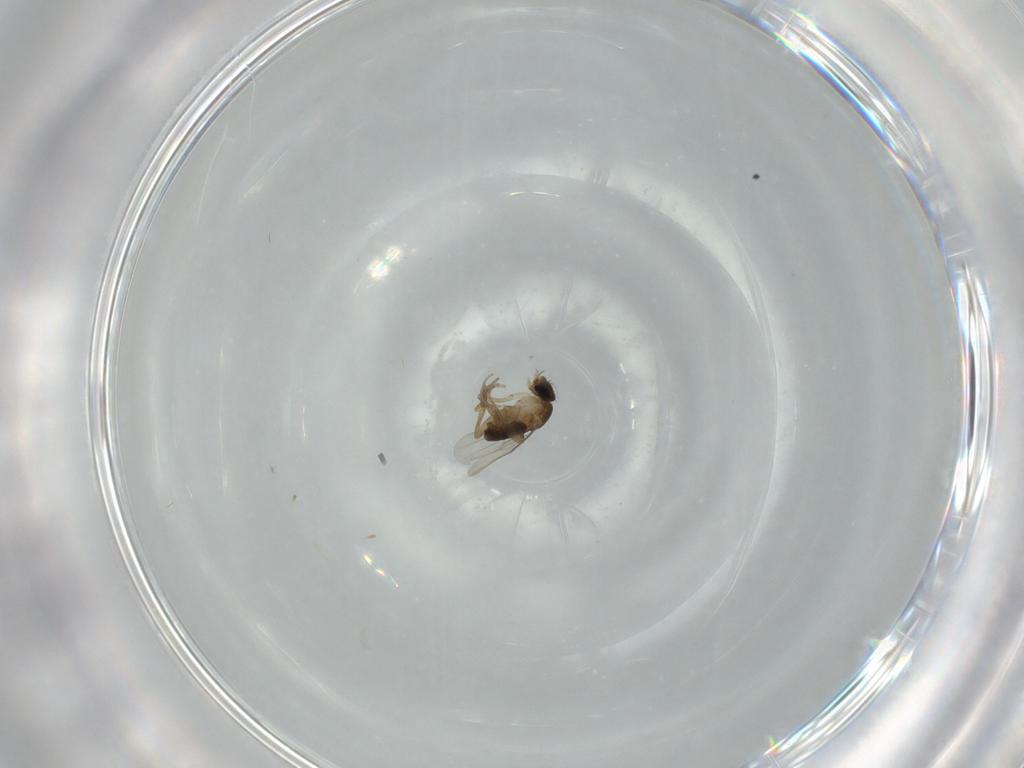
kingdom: Animalia
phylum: Arthropoda
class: Insecta
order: Diptera
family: Phoridae
